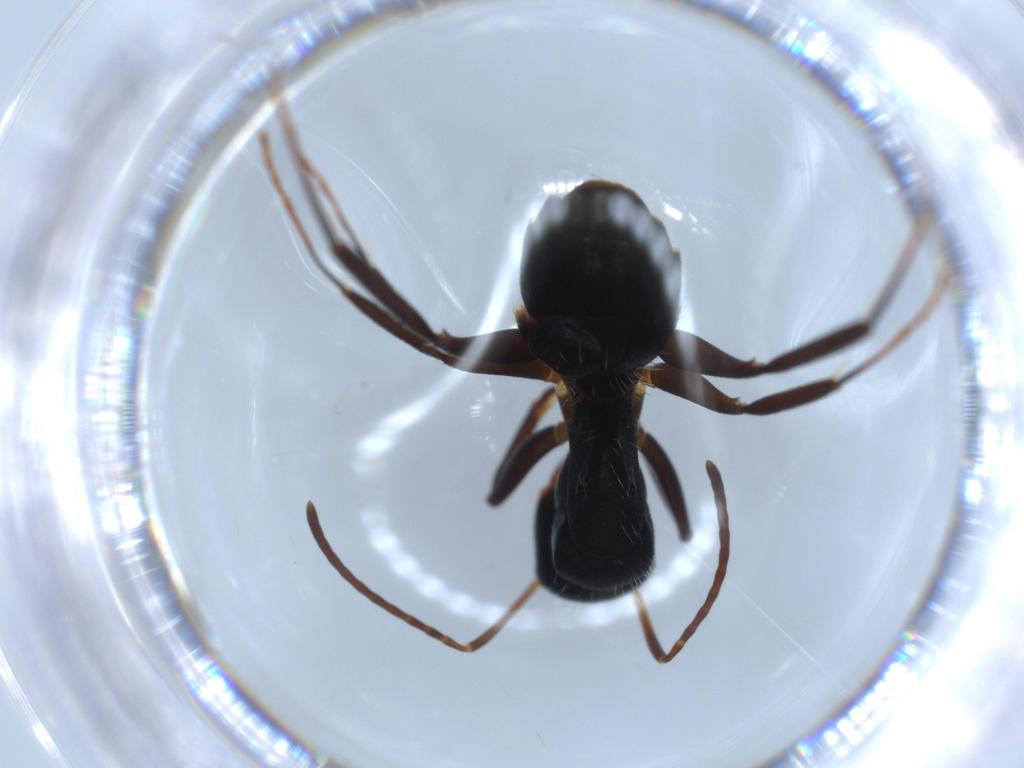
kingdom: Animalia
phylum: Arthropoda
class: Insecta
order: Hymenoptera
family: Formicidae
